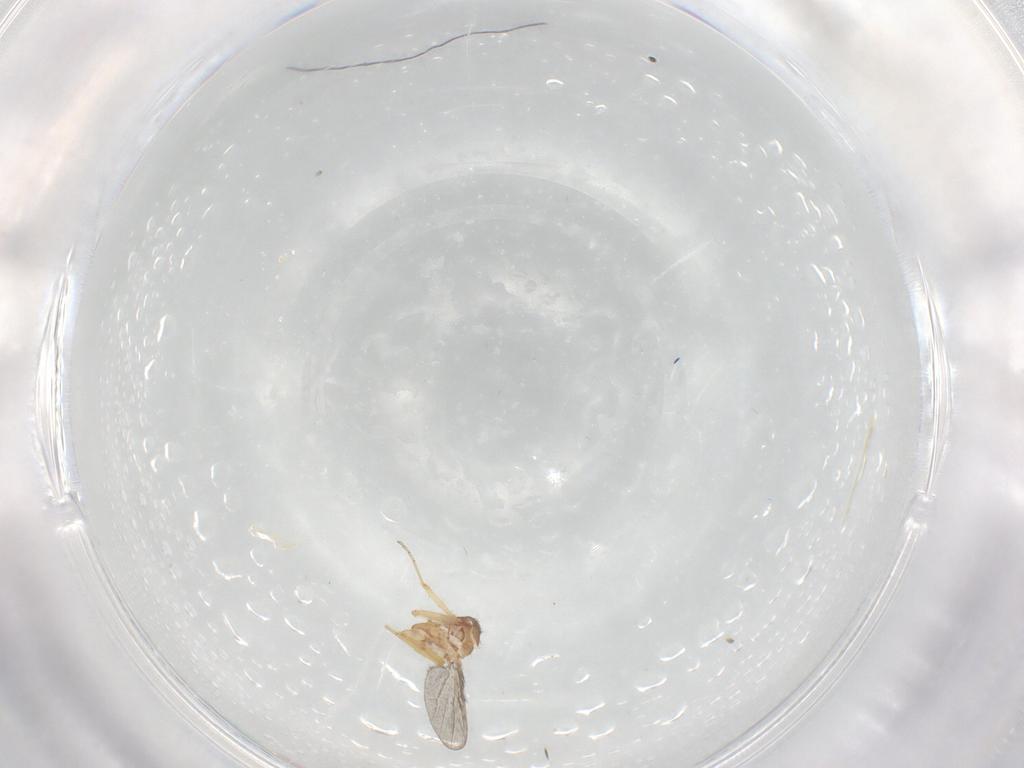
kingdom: Animalia
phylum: Arthropoda
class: Insecta
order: Diptera
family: Ceratopogonidae
